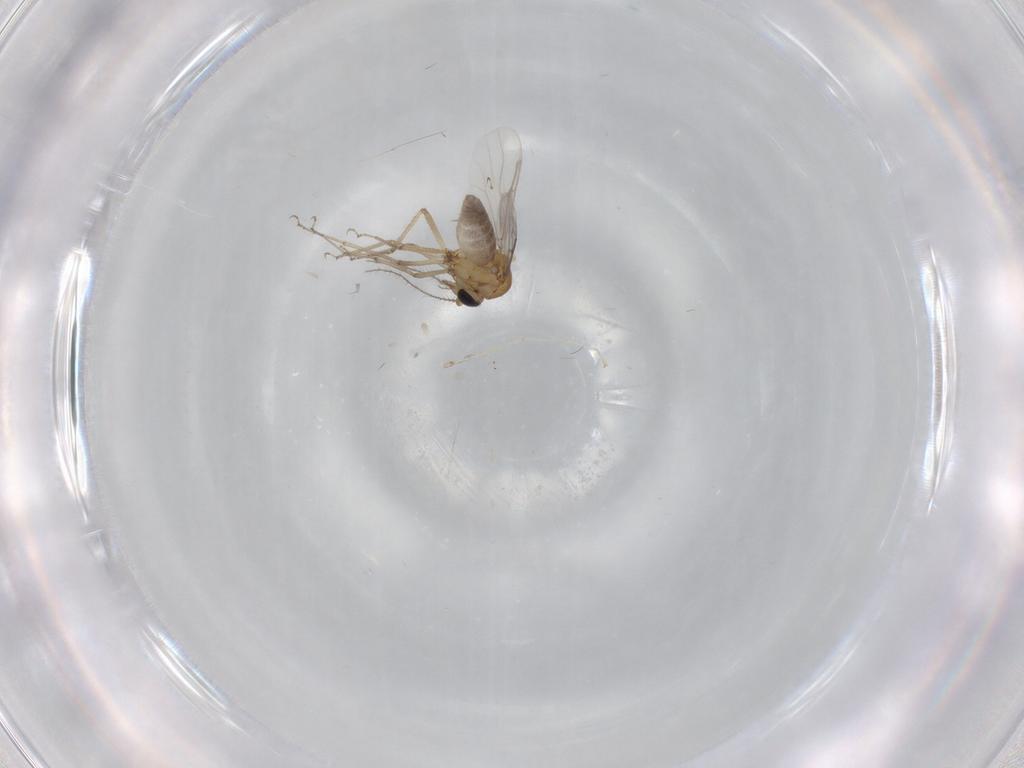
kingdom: Animalia
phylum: Arthropoda
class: Insecta
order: Diptera
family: Cecidomyiidae
